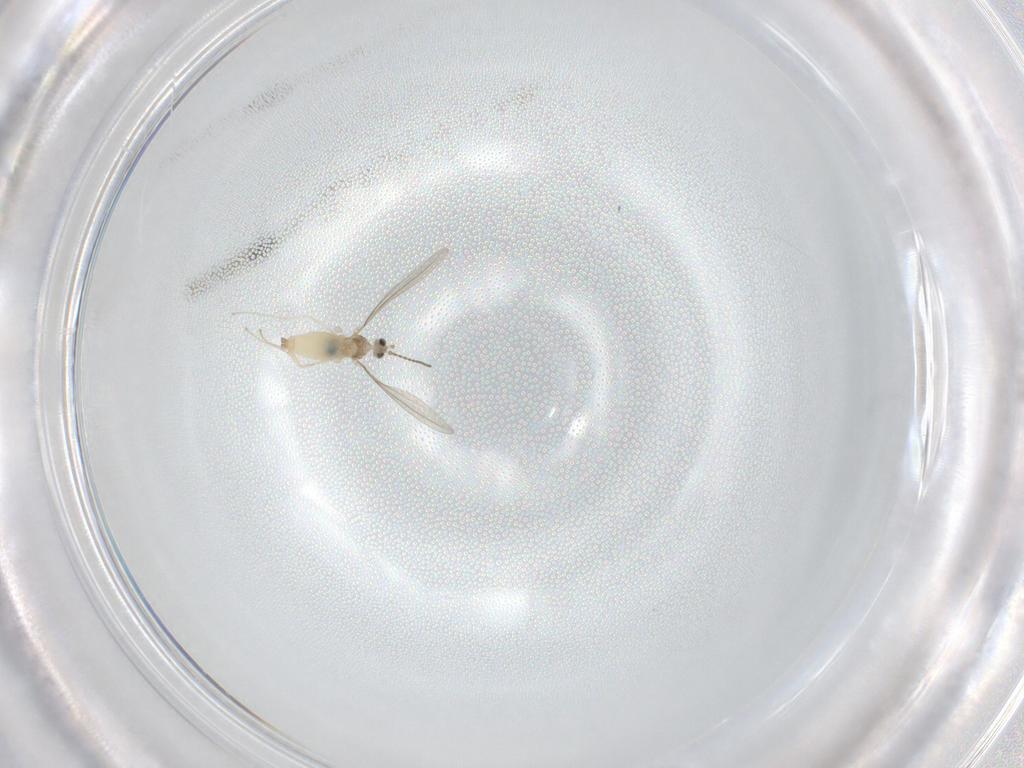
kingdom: Animalia
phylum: Arthropoda
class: Insecta
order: Diptera
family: Cecidomyiidae
